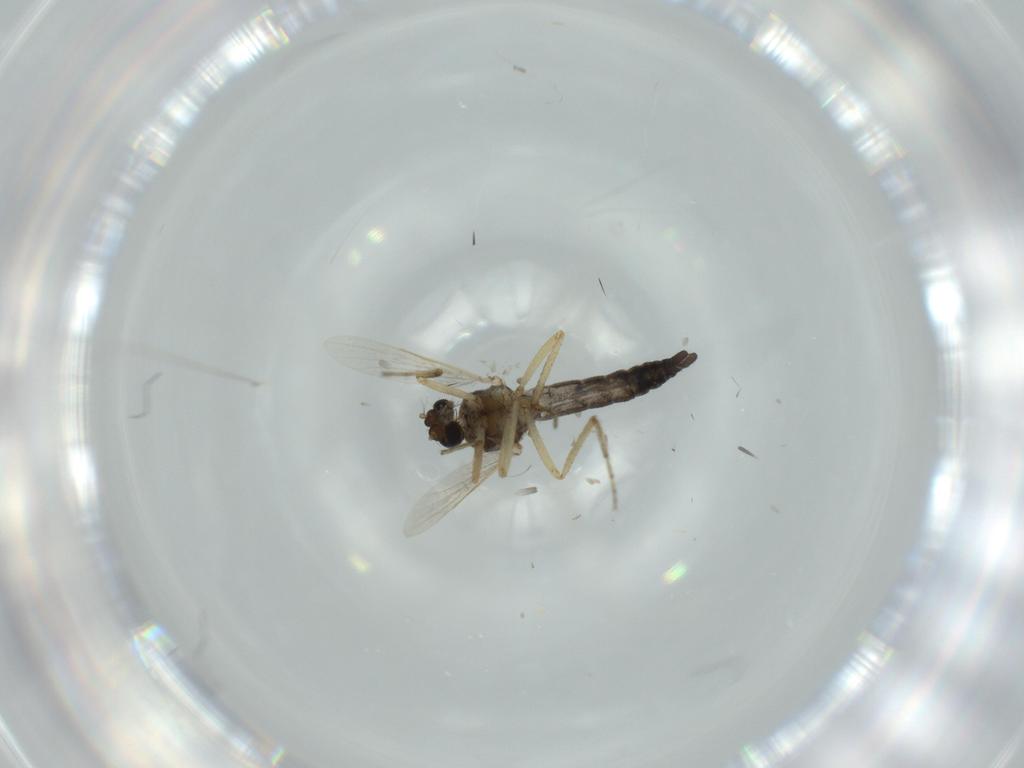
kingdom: Animalia
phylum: Arthropoda
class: Insecta
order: Diptera
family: Ceratopogonidae
